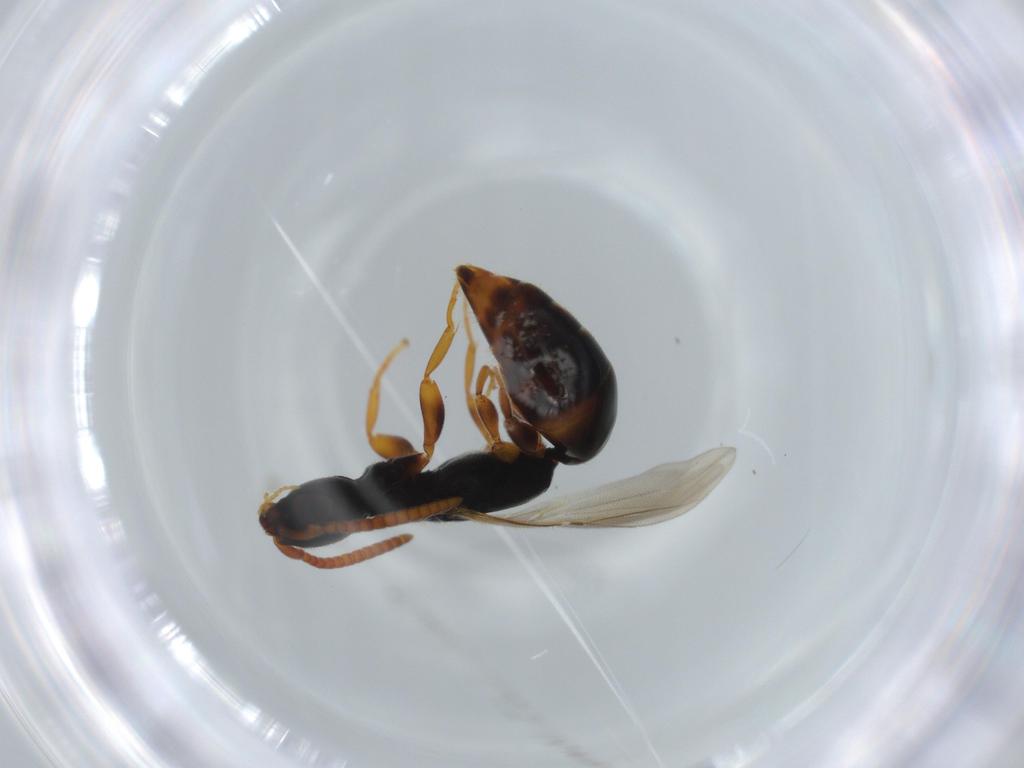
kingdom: Animalia
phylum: Arthropoda
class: Insecta
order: Hymenoptera
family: Bethylidae
